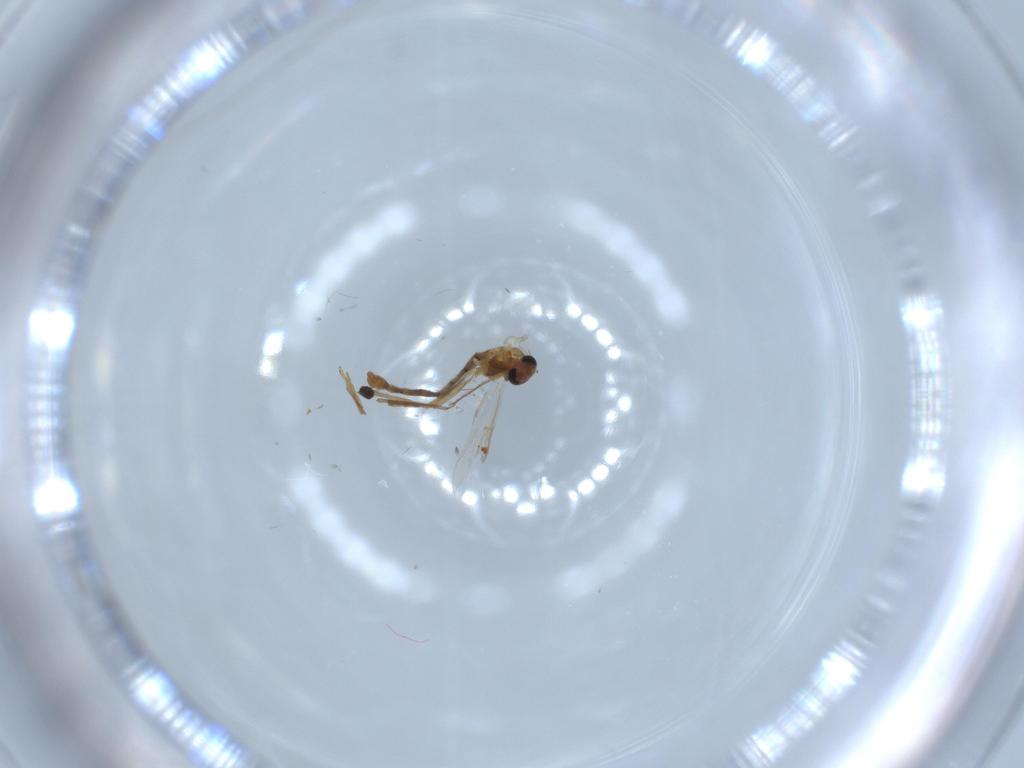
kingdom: Animalia
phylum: Arthropoda
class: Insecta
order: Diptera
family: Chironomidae
